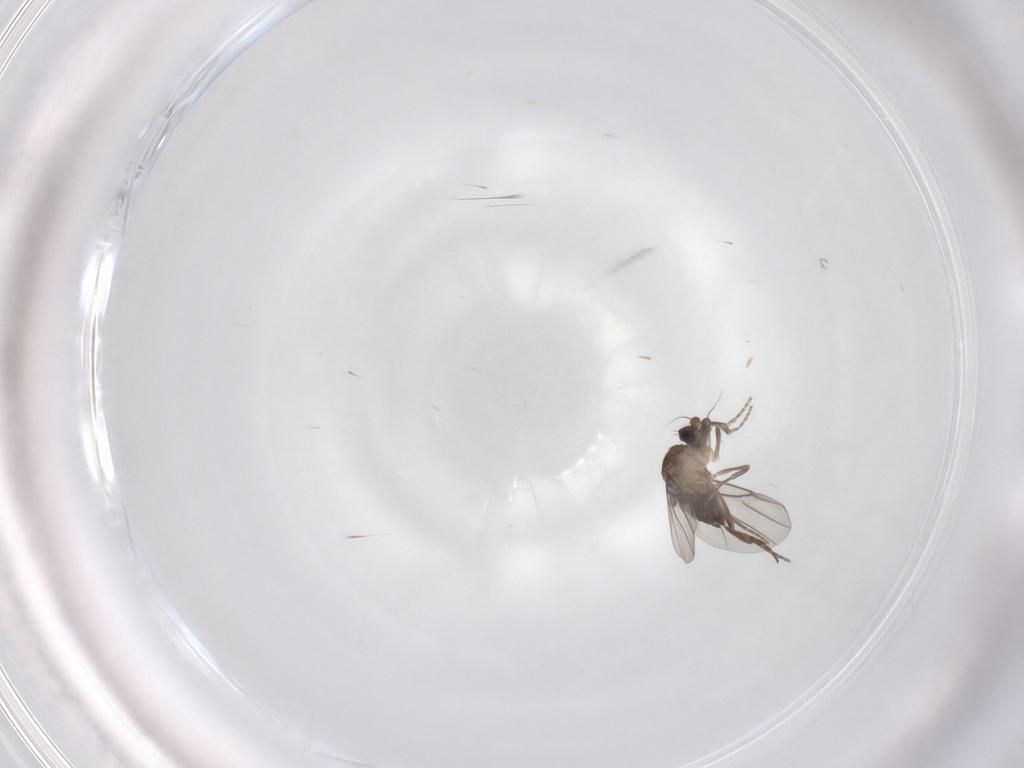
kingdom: Animalia
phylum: Arthropoda
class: Insecta
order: Diptera
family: Phoridae
